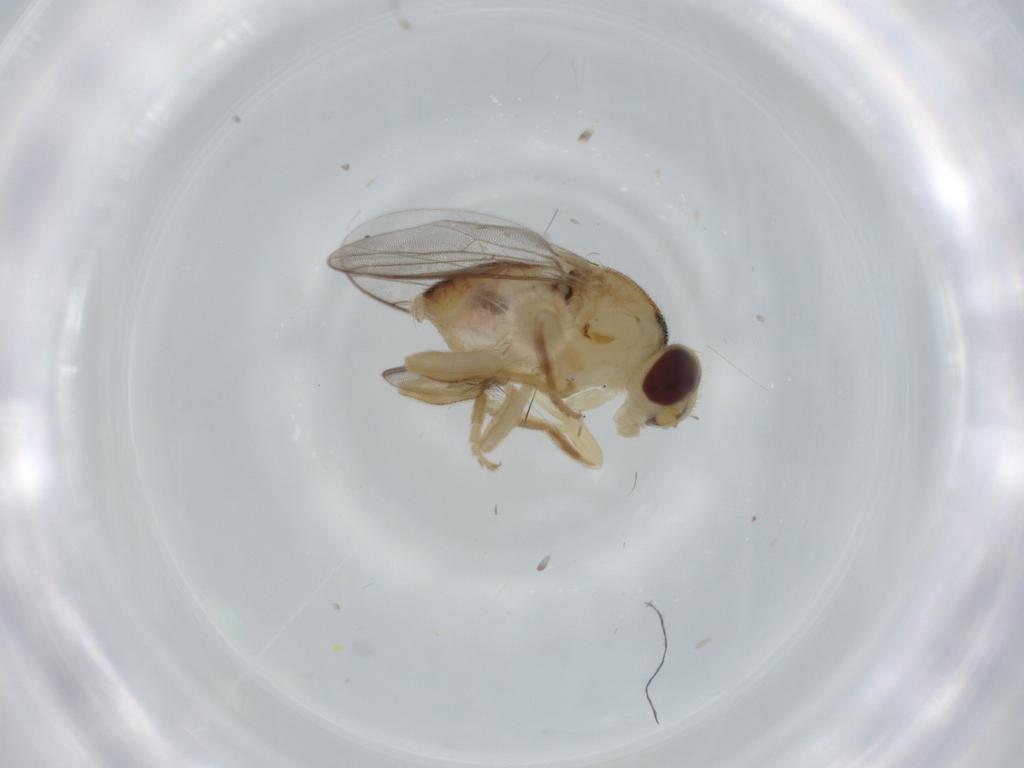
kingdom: Animalia
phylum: Arthropoda
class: Insecta
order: Diptera
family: Chloropidae
